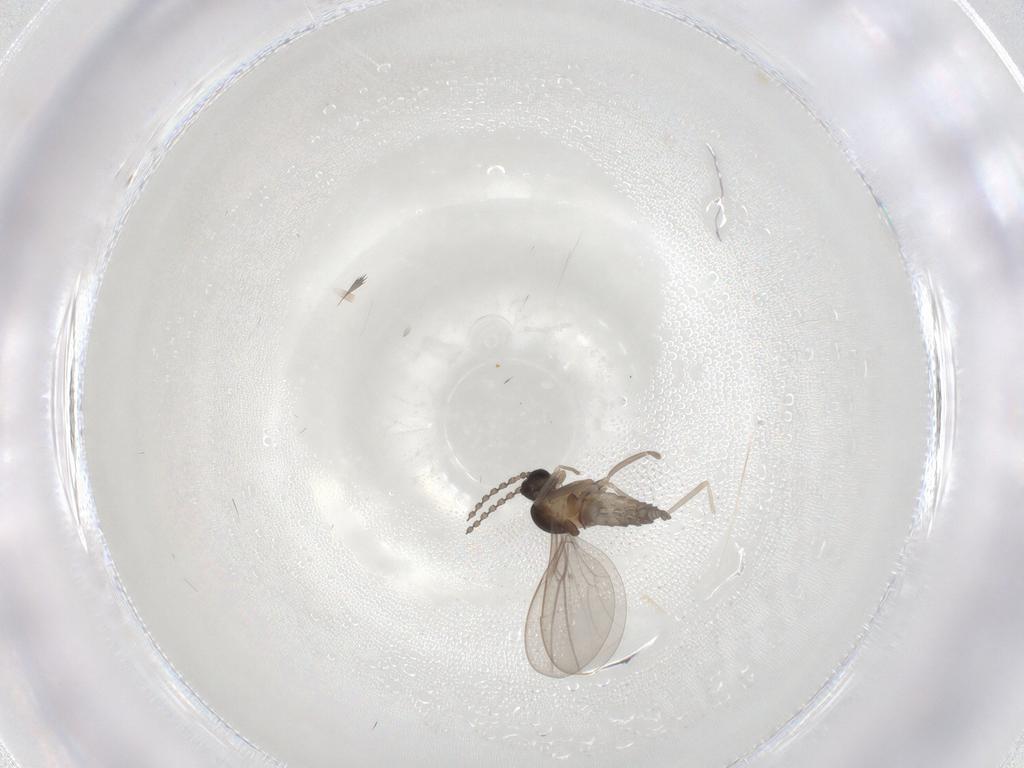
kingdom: Animalia
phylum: Arthropoda
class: Insecta
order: Diptera
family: Cecidomyiidae
